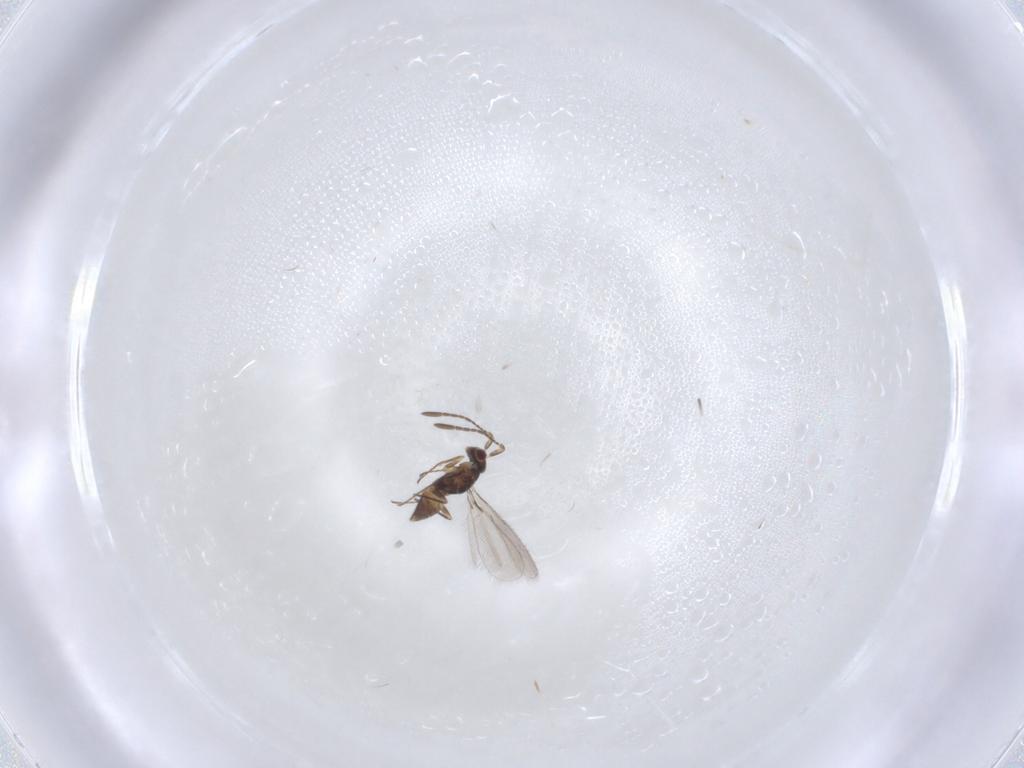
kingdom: Animalia
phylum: Arthropoda
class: Insecta
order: Hymenoptera
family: Mymaridae
